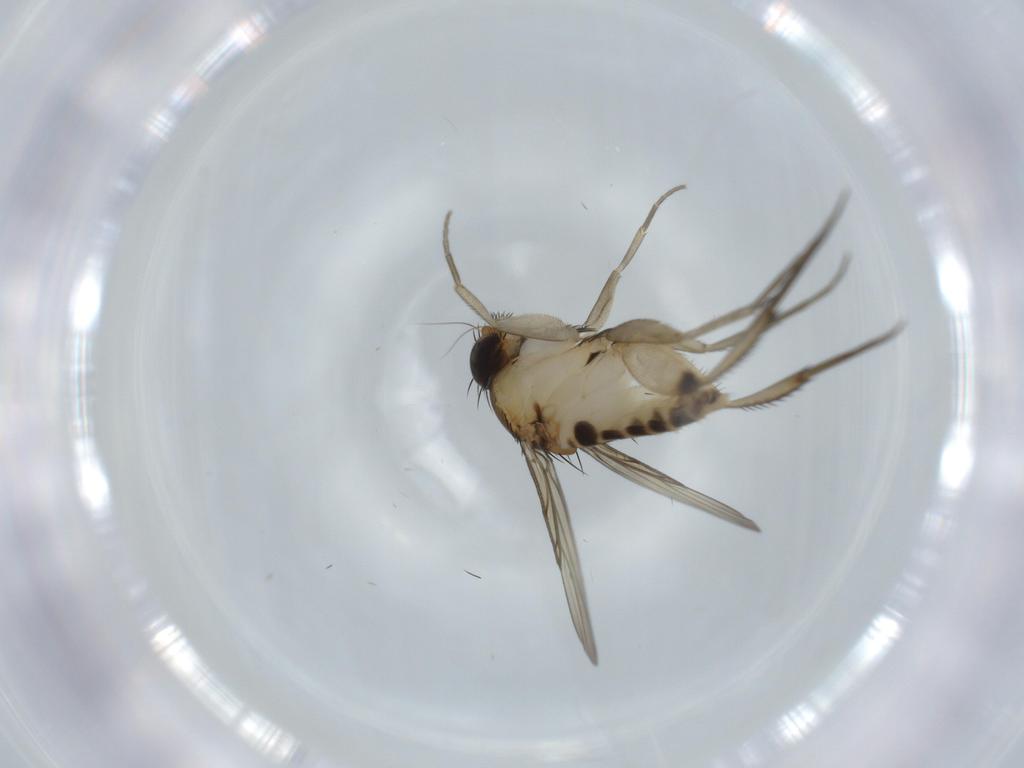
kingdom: Animalia
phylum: Arthropoda
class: Insecta
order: Diptera
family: Phoridae
